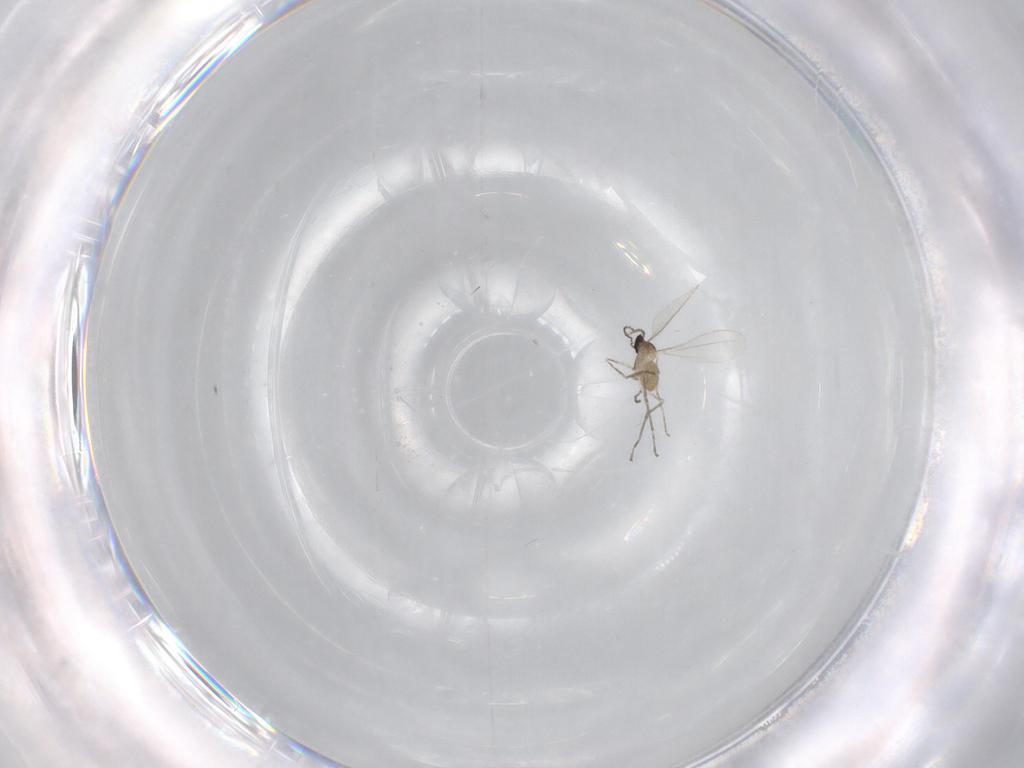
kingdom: Animalia
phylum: Arthropoda
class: Insecta
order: Diptera
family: Cecidomyiidae
